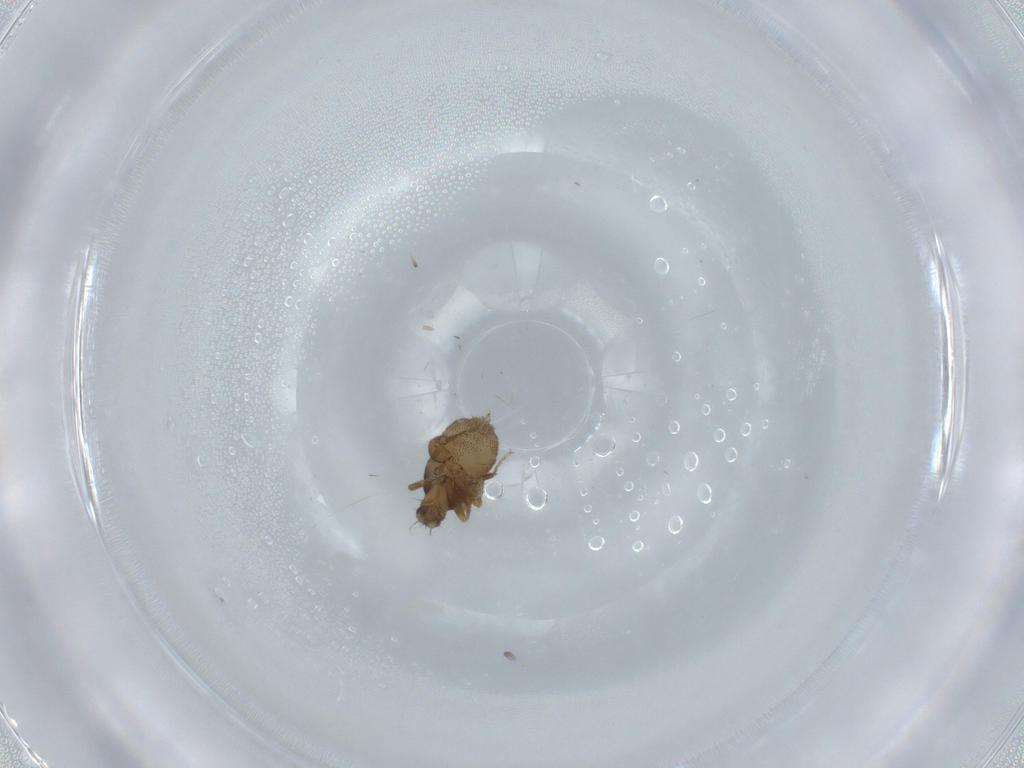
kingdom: Animalia
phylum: Arthropoda
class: Insecta
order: Diptera
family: Phoridae
